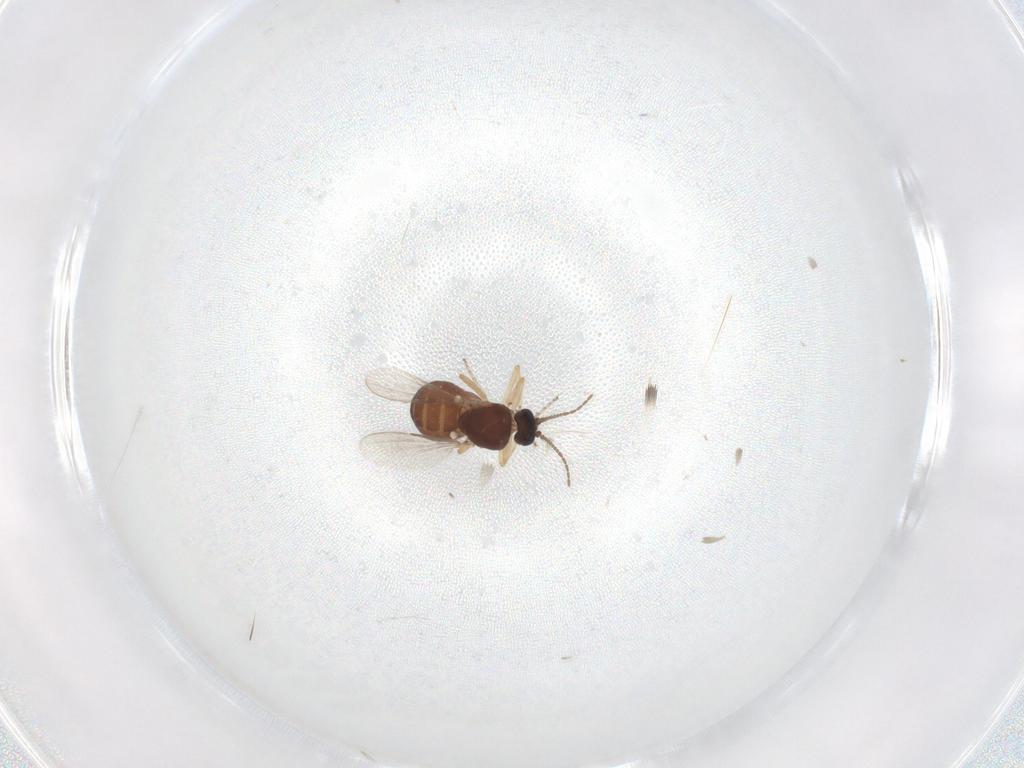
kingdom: Animalia
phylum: Arthropoda
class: Insecta
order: Diptera
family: Ceratopogonidae
